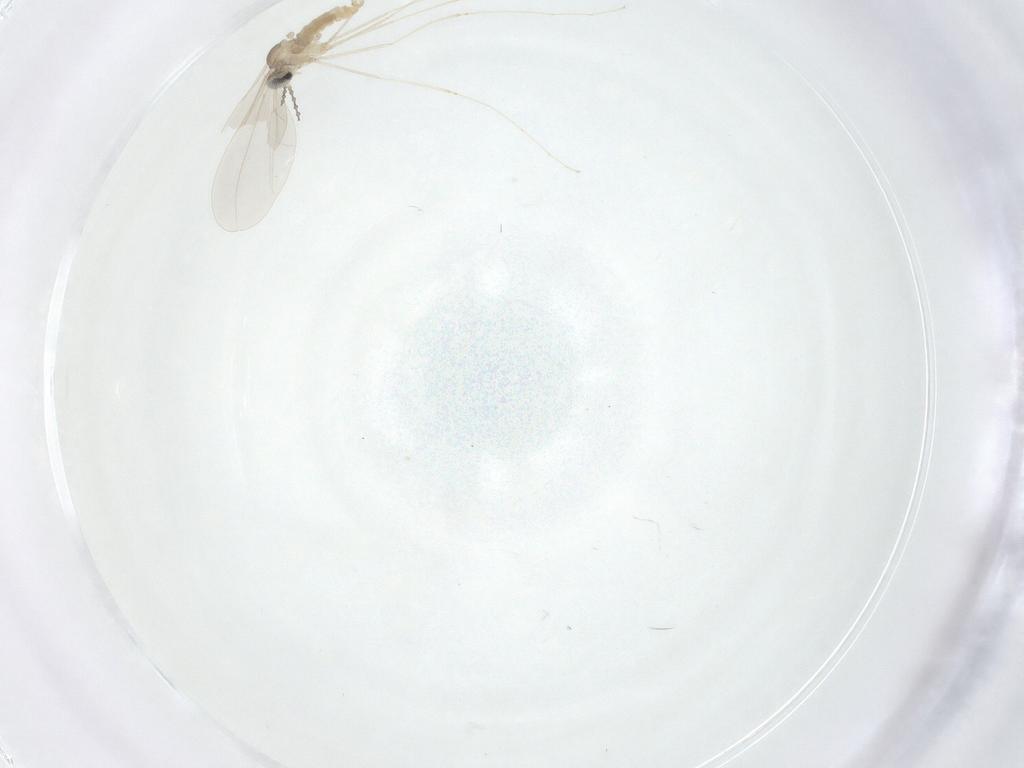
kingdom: Animalia
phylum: Arthropoda
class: Insecta
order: Diptera
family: Cecidomyiidae
